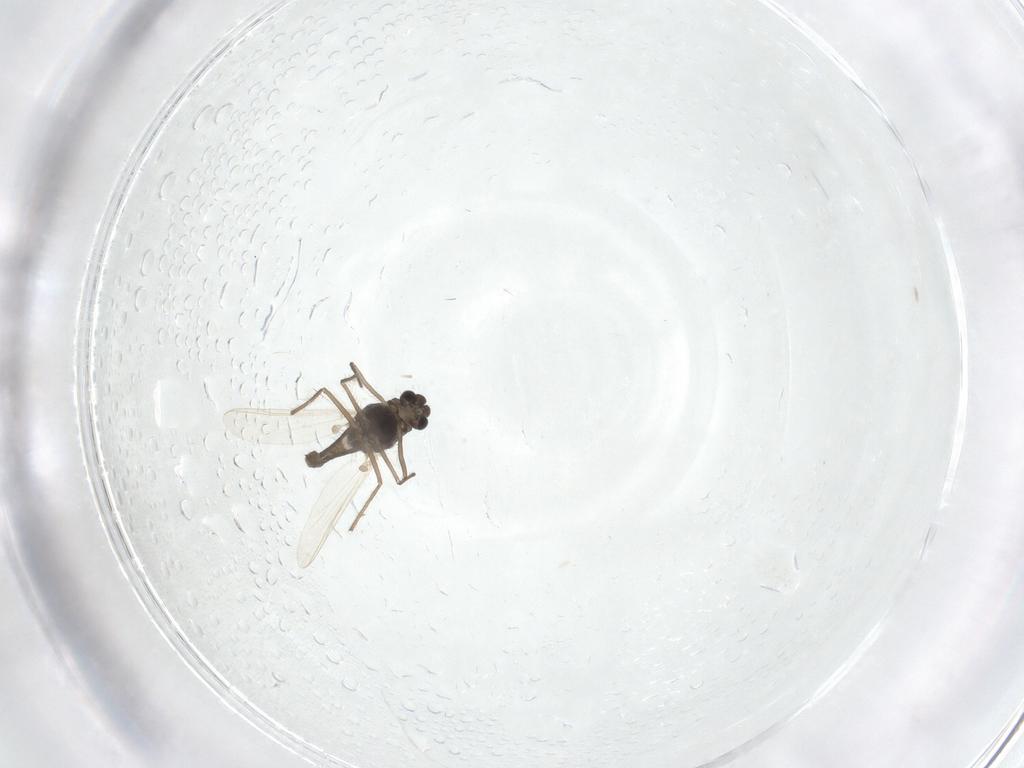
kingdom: Animalia
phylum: Arthropoda
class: Insecta
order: Diptera
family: Chironomidae
